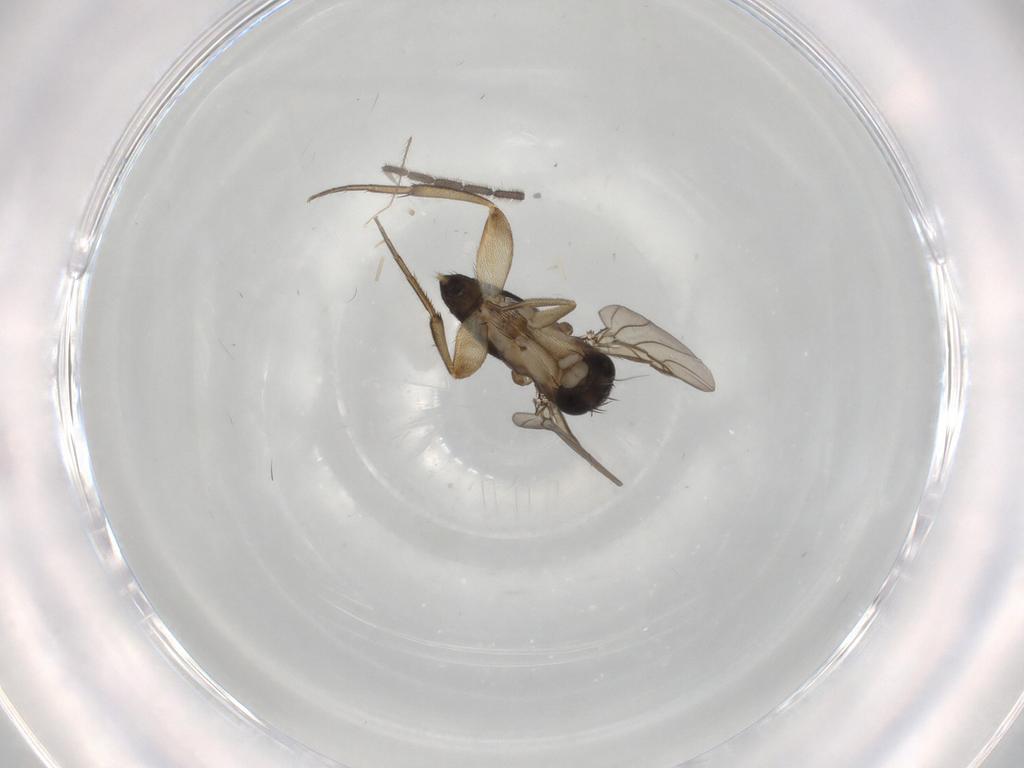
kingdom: Animalia
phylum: Arthropoda
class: Insecta
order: Diptera
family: Phoridae
